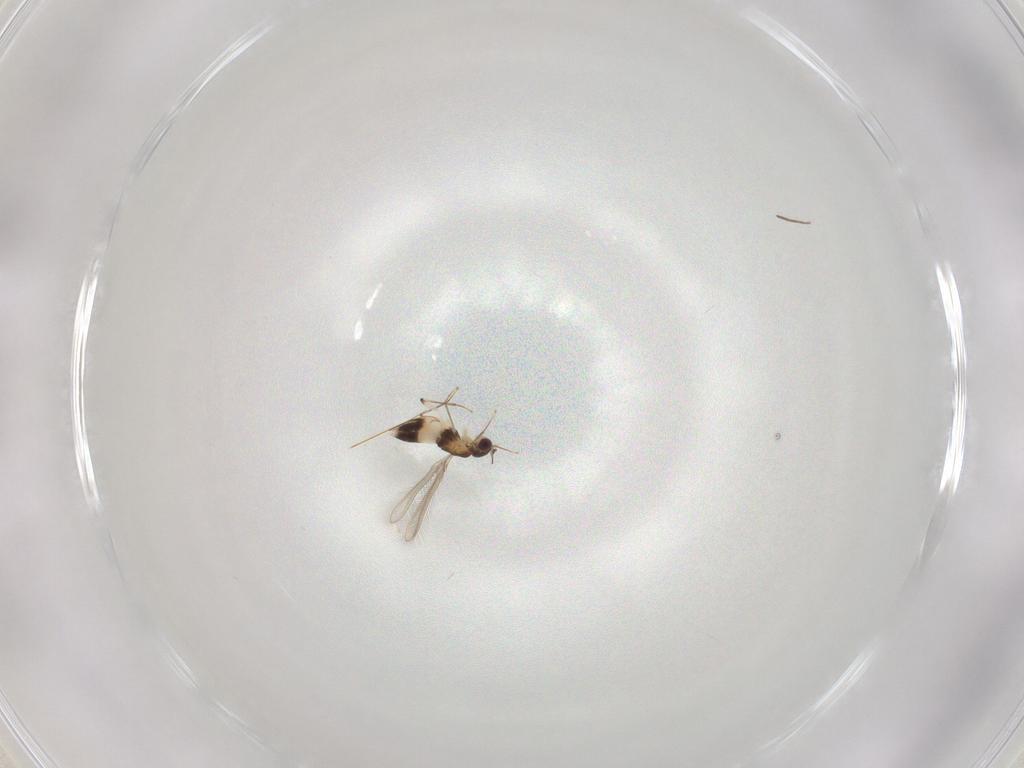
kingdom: Animalia
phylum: Arthropoda
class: Insecta
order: Hymenoptera
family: Mymaridae
